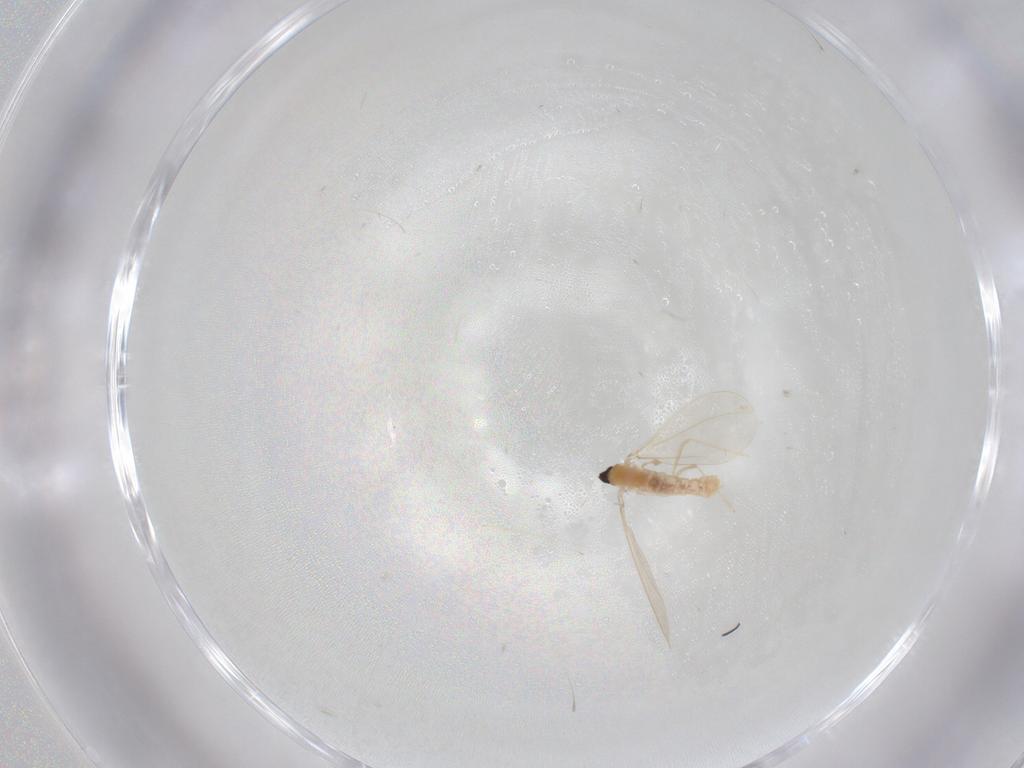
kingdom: Animalia
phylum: Arthropoda
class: Insecta
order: Diptera
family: Cecidomyiidae
